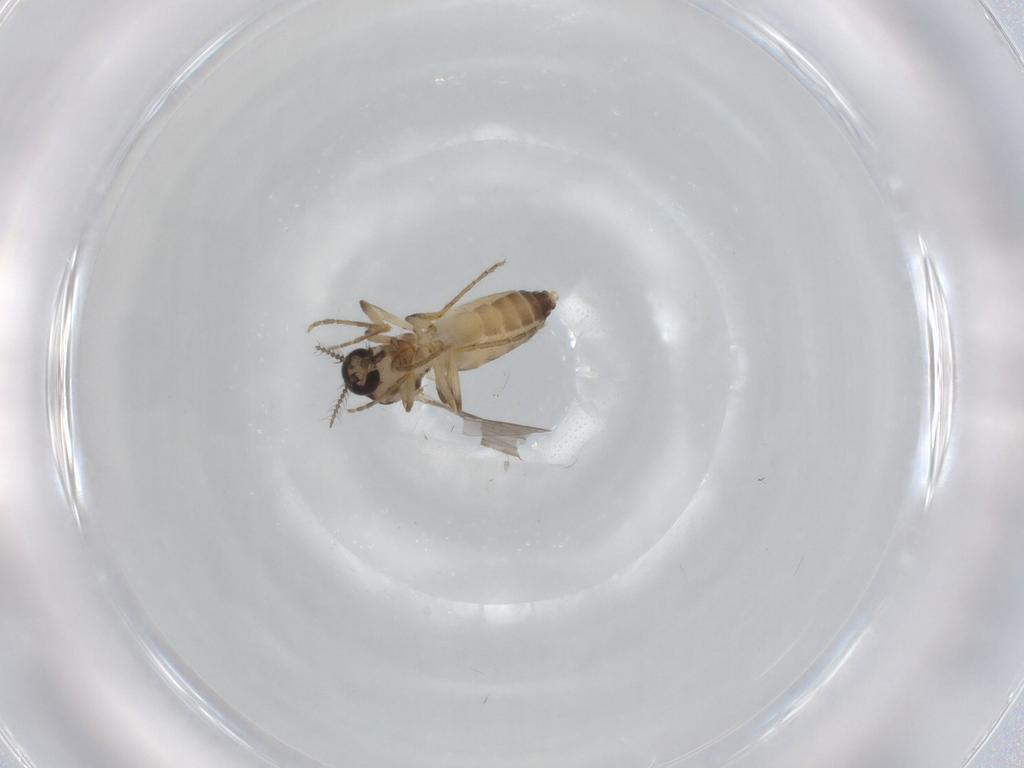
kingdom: Animalia
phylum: Arthropoda
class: Insecta
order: Diptera
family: Ceratopogonidae
